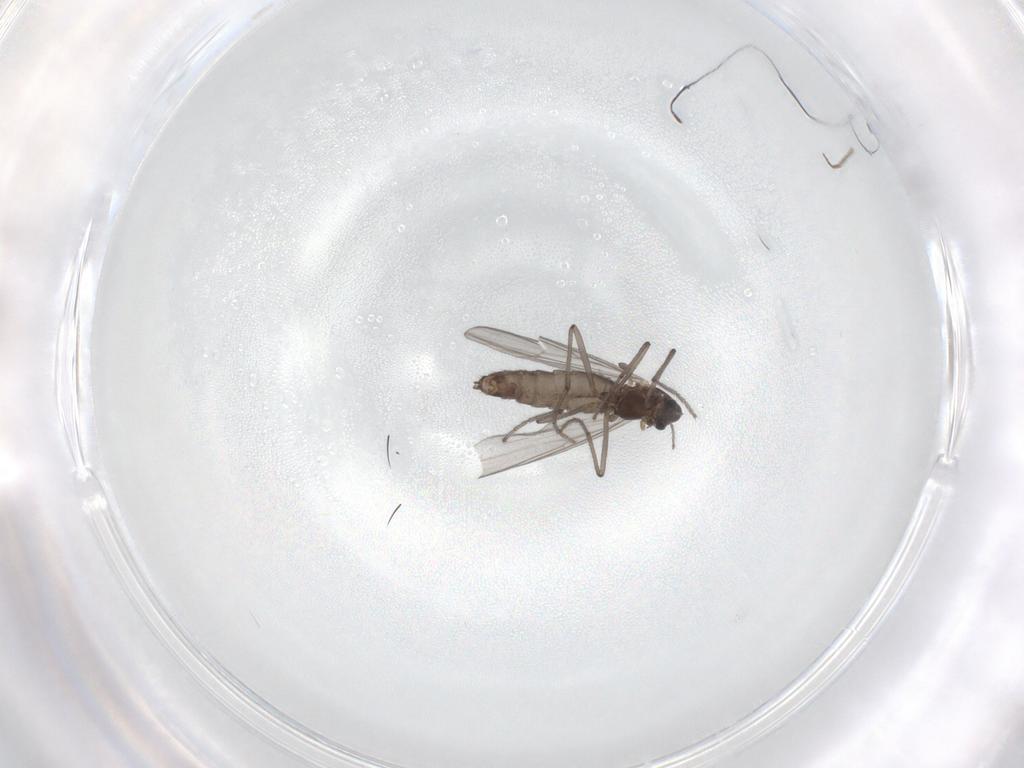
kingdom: Animalia
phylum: Arthropoda
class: Insecta
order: Diptera
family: Chironomidae
